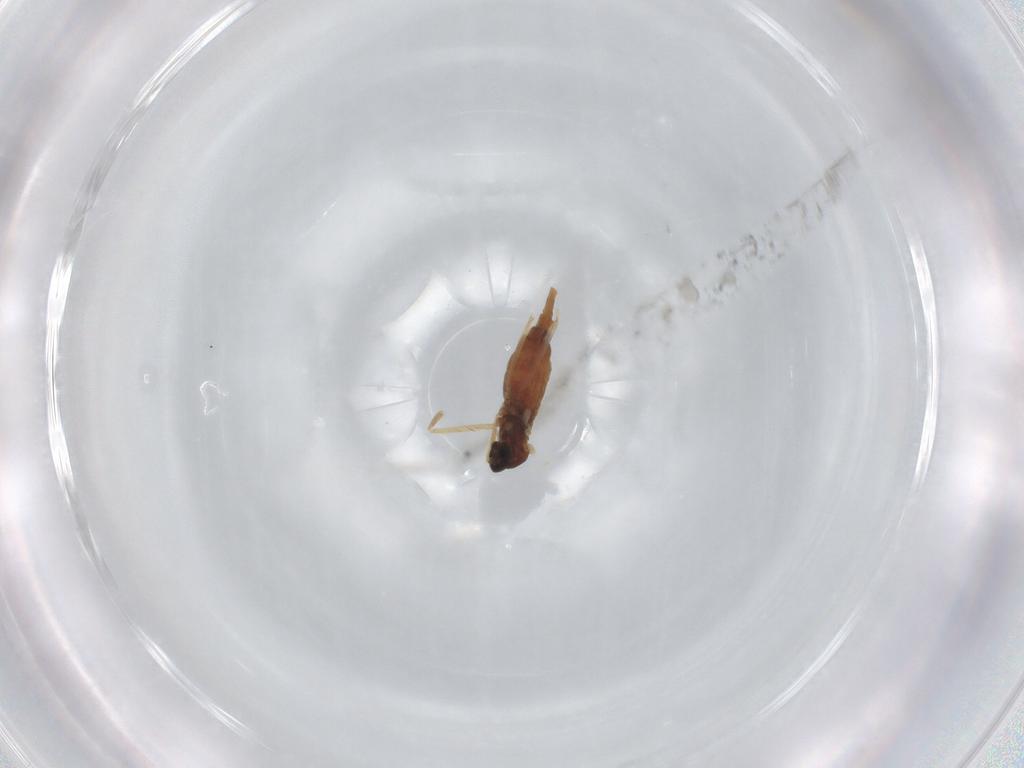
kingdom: Animalia
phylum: Arthropoda
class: Insecta
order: Diptera
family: Cecidomyiidae
